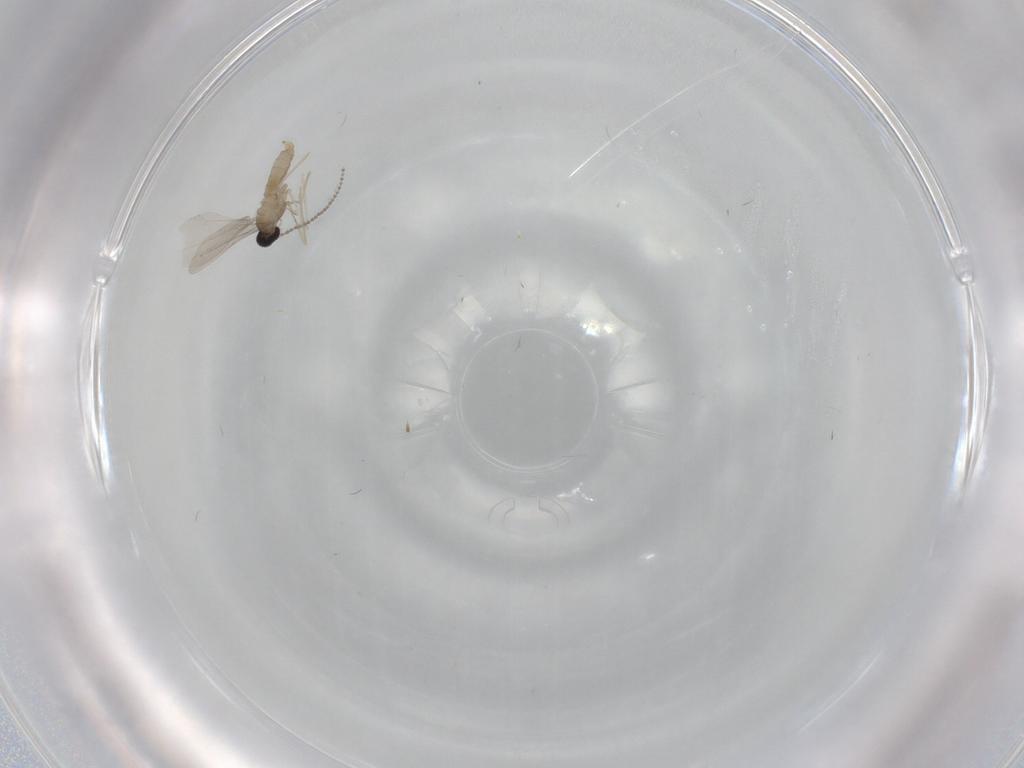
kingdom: Animalia
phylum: Arthropoda
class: Insecta
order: Diptera
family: Cecidomyiidae
